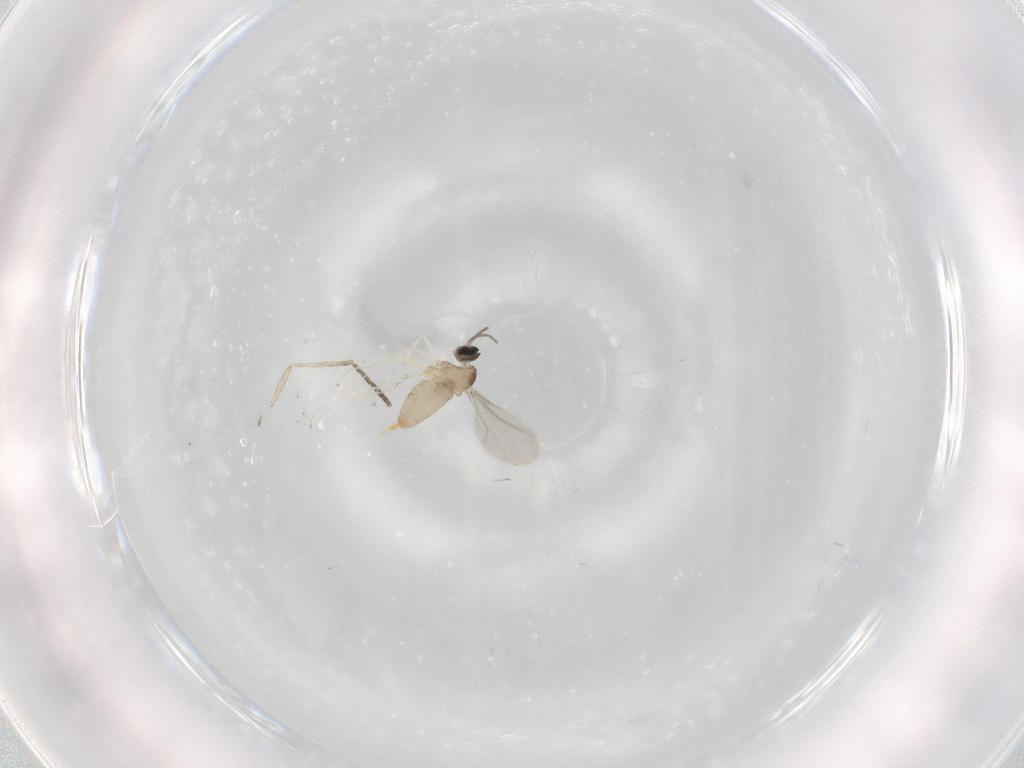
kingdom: Animalia
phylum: Arthropoda
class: Insecta
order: Diptera
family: Cecidomyiidae
